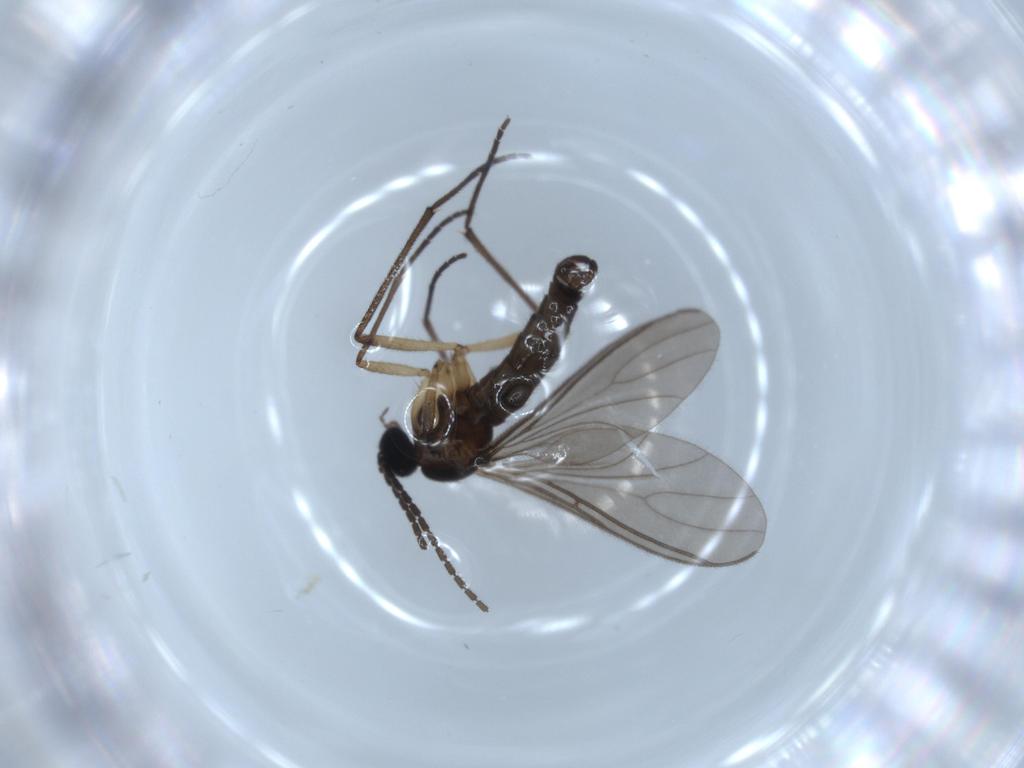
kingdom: Animalia
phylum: Arthropoda
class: Insecta
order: Diptera
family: Sciaridae
